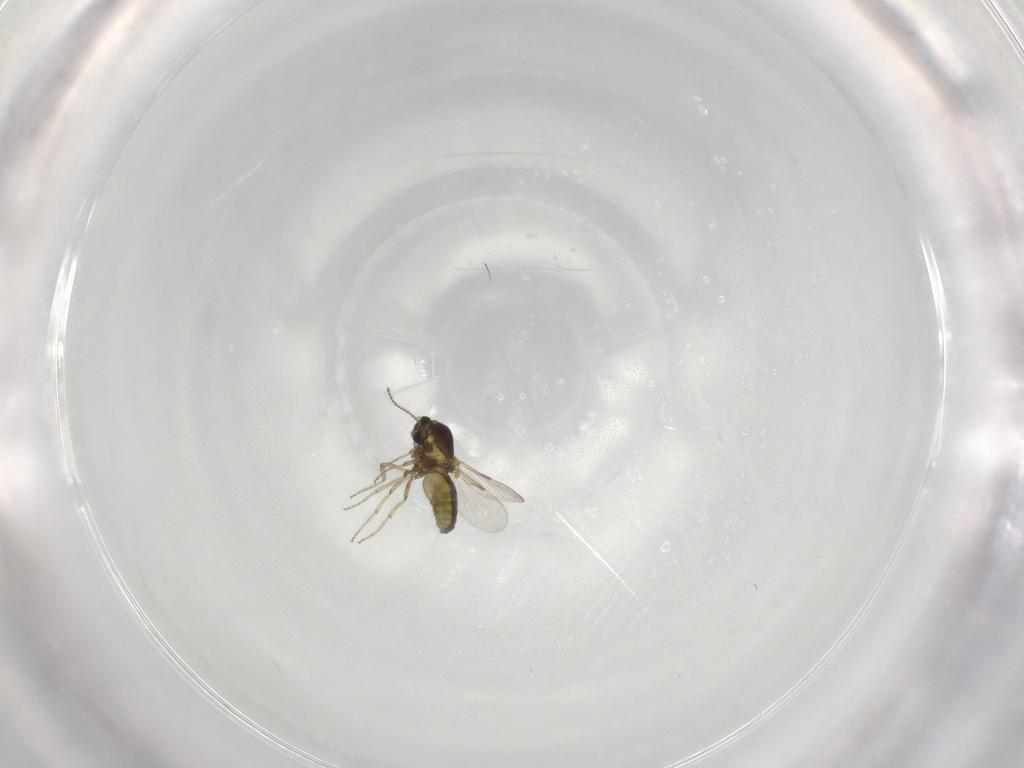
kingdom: Animalia
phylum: Arthropoda
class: Insecta
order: Diptera
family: Ceratopogonidae
